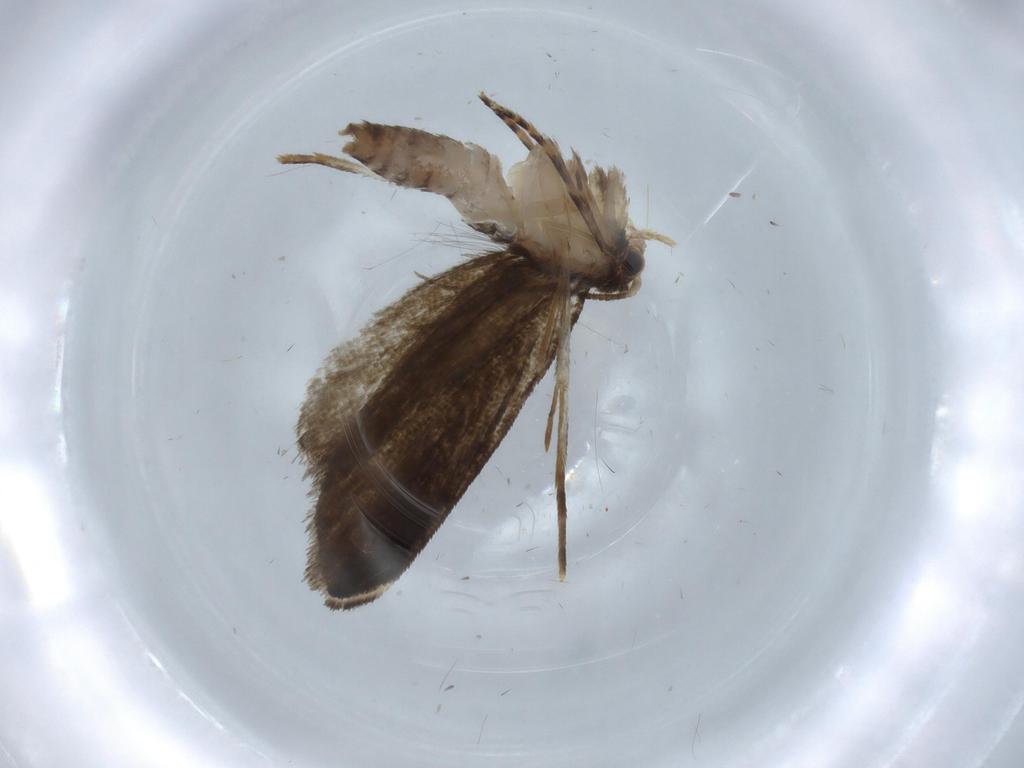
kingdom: Animalia
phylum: Arthropoda
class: Insecta
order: Lepidoptera
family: Tineidae
